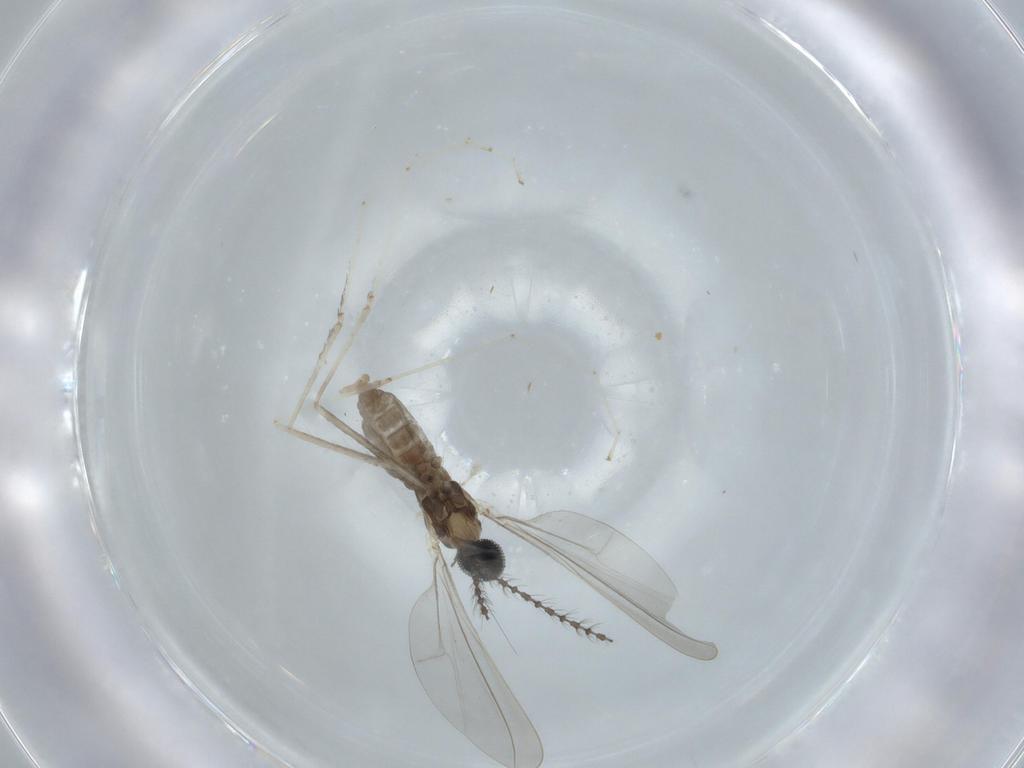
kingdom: Animalia
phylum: Arthropoda
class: Insecta
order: Diptera
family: Cecidomyiidae
